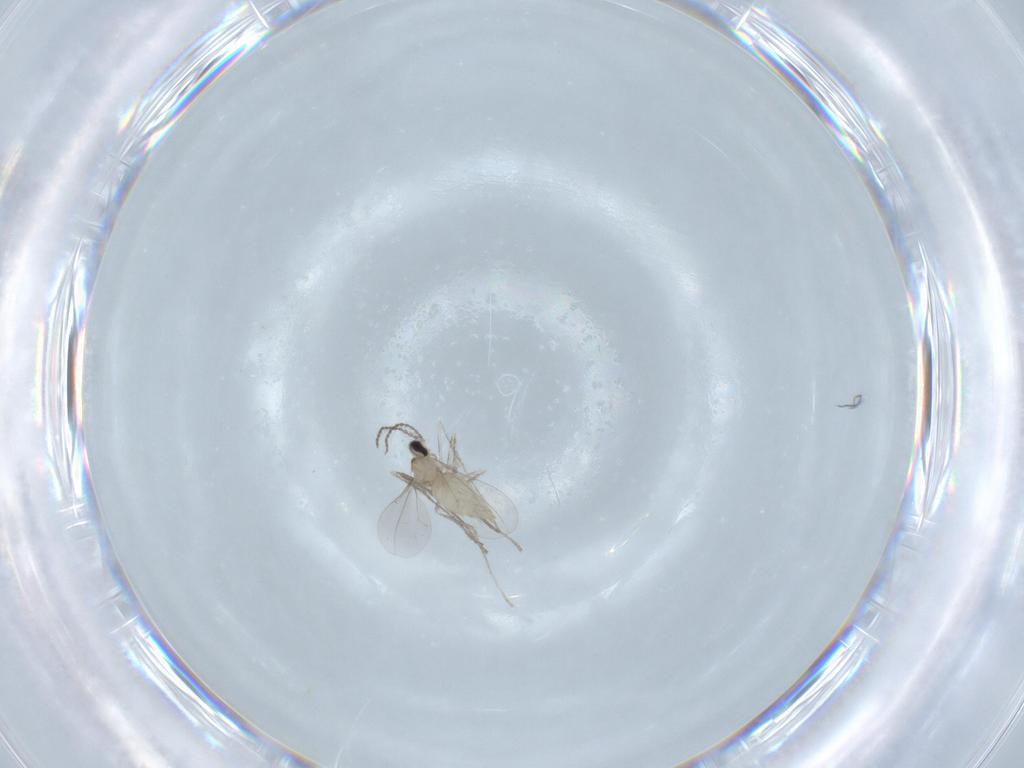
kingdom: Animalia
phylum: Arthropoda
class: Insecta
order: Diptera
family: Cecidomyiidae
